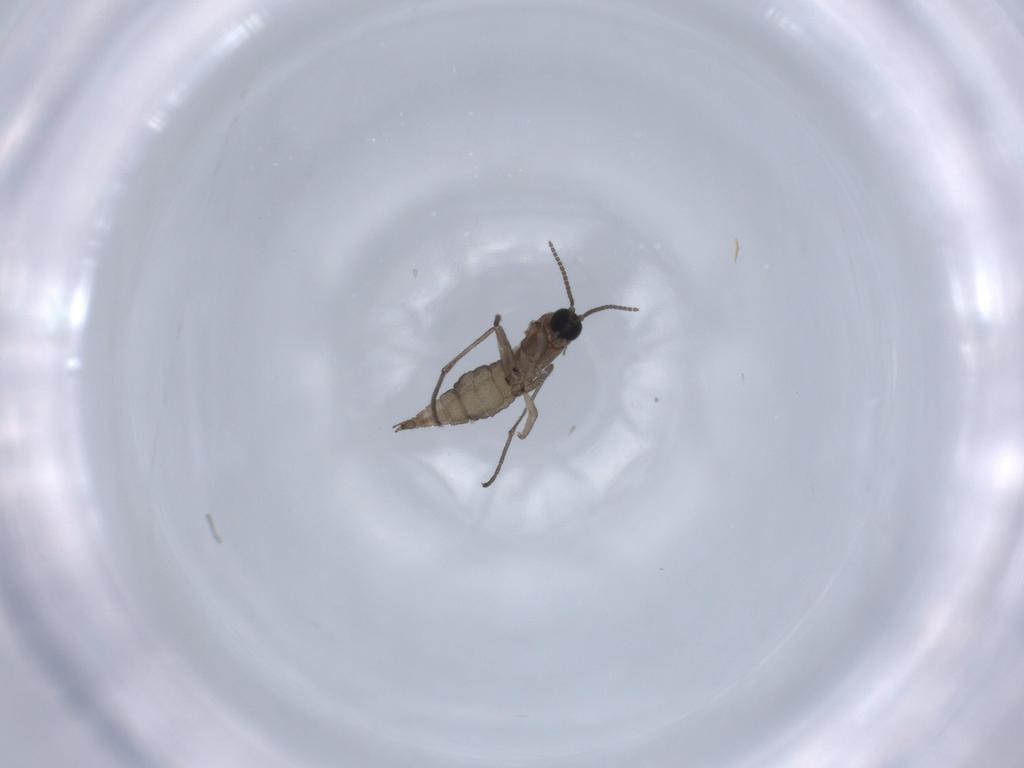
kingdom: Animalia
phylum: Arthropoda
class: Insecta
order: Diptera
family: Sciaridae
